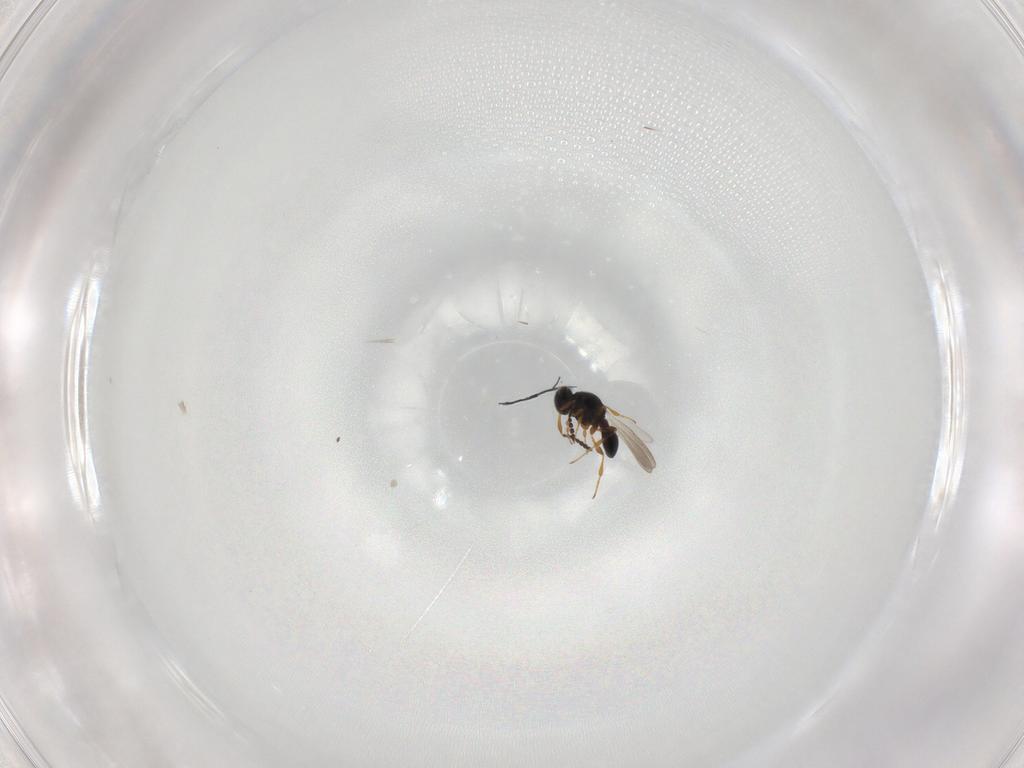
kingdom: Animalia
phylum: Arthropoda
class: Insecta
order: Hymenoptera
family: Platygastridae
